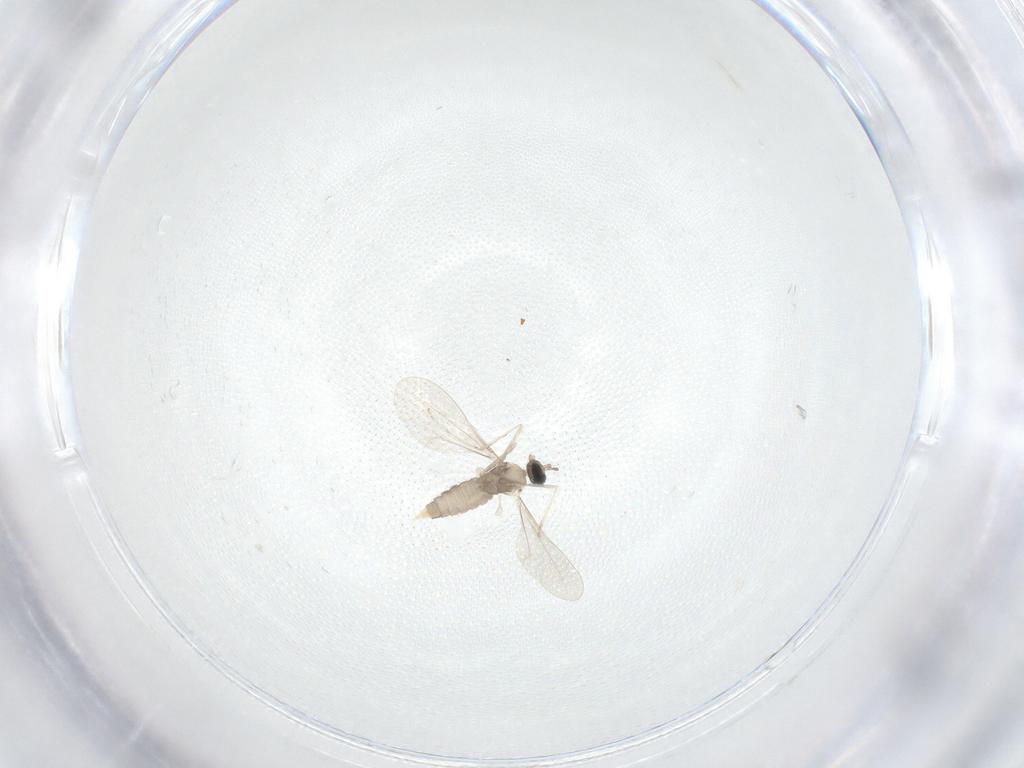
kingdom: Animalia
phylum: Arthropoda
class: Insecta
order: Diptera
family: Cecidomyiidae
